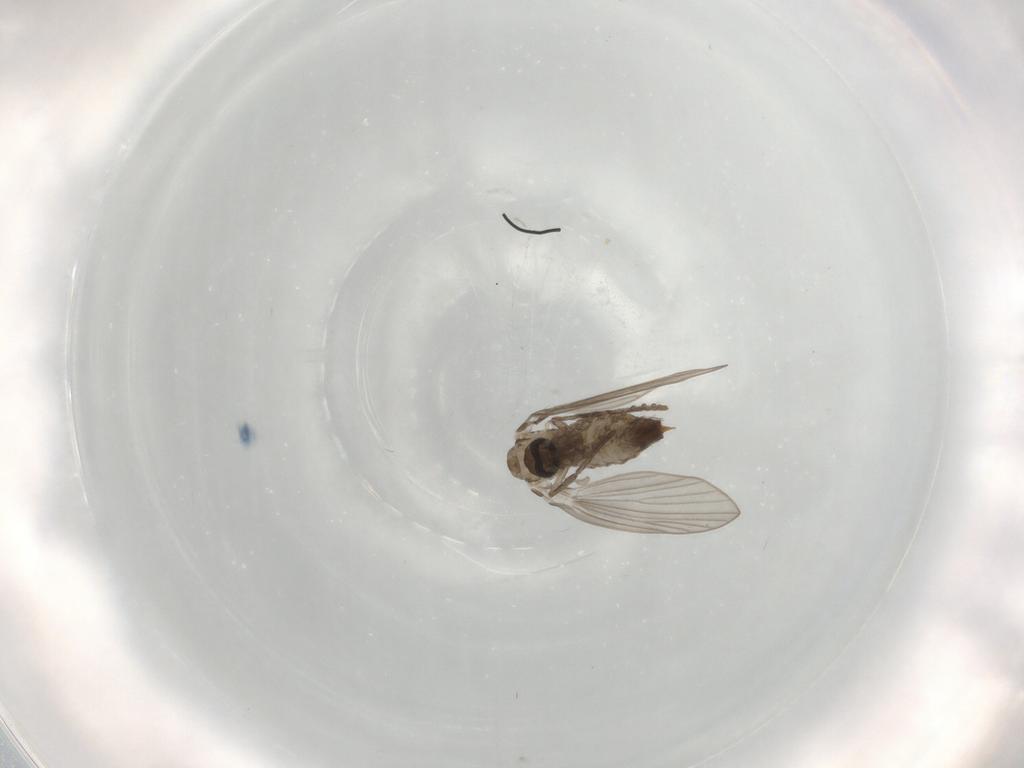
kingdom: Animalia
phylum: Arthropoda
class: Insecta
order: Diptera
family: Psychodidae
